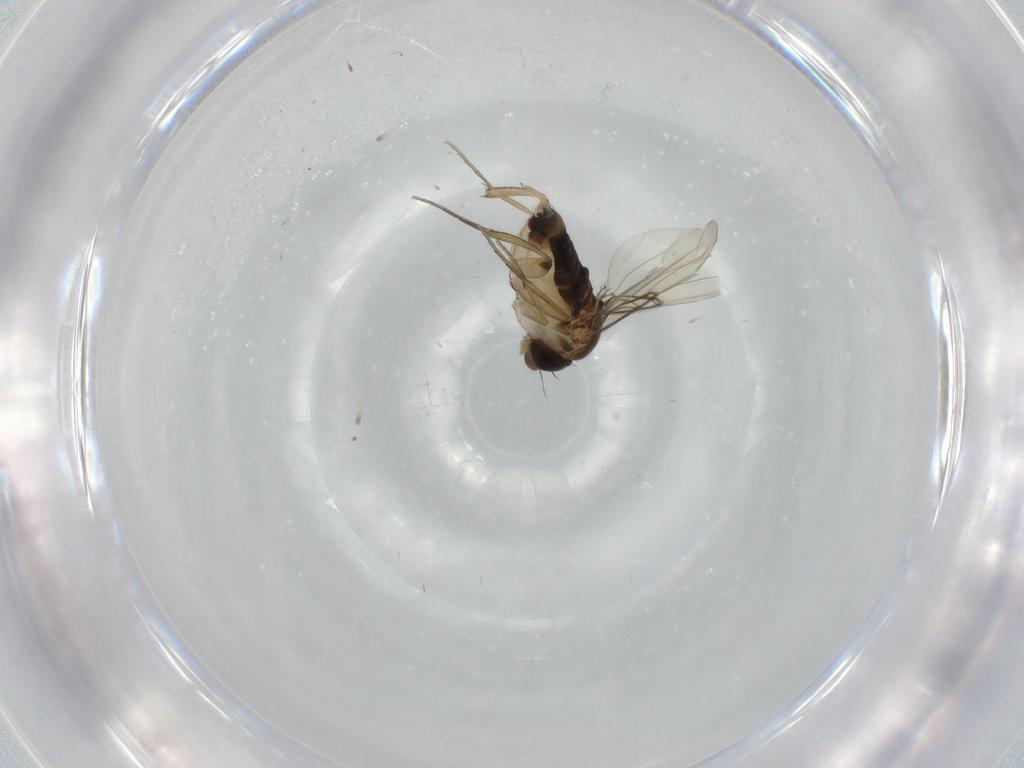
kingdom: Animalia
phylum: Arthropoda
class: Insecta
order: Diptera
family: Phoridae
